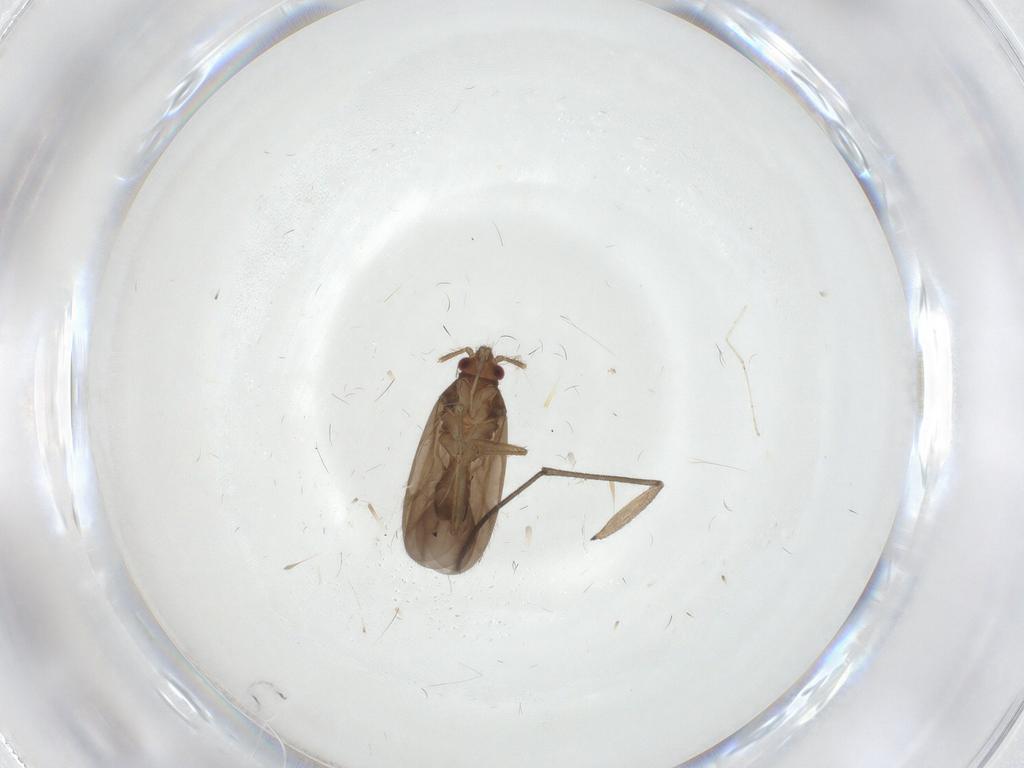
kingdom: Animalia
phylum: Arthropoda
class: Insecta
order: Hemiptera
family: Ceratocombidae
